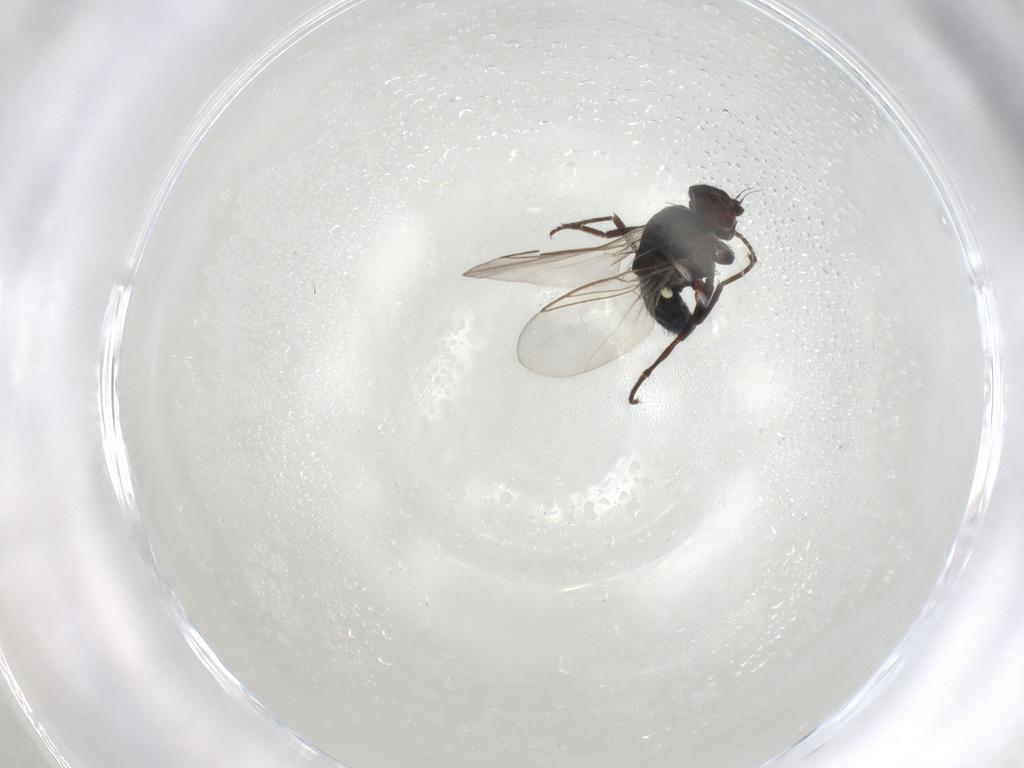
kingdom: Animalia
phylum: Arthropoda
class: Insecta
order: Diptera
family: Agromyzidae
